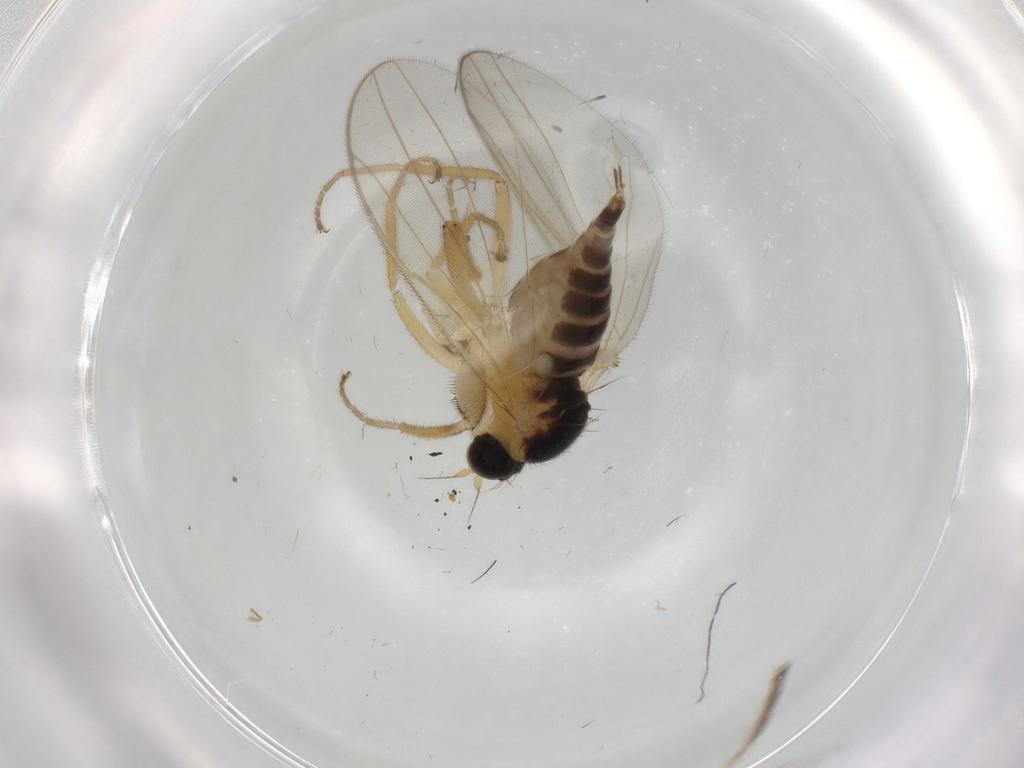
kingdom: Animalia
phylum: Arthropoda
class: Insecta
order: Diptera
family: Hybotidae
